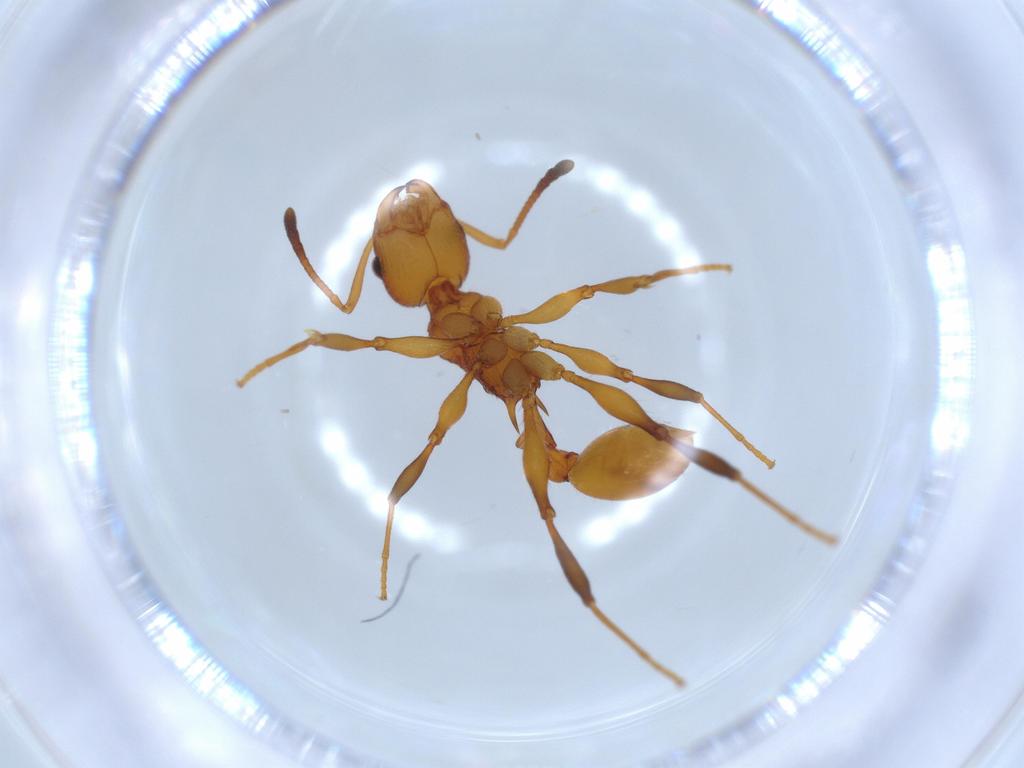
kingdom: Animalia
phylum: Arthropoda
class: Insecta
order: Hymenoptera
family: Formicidae
